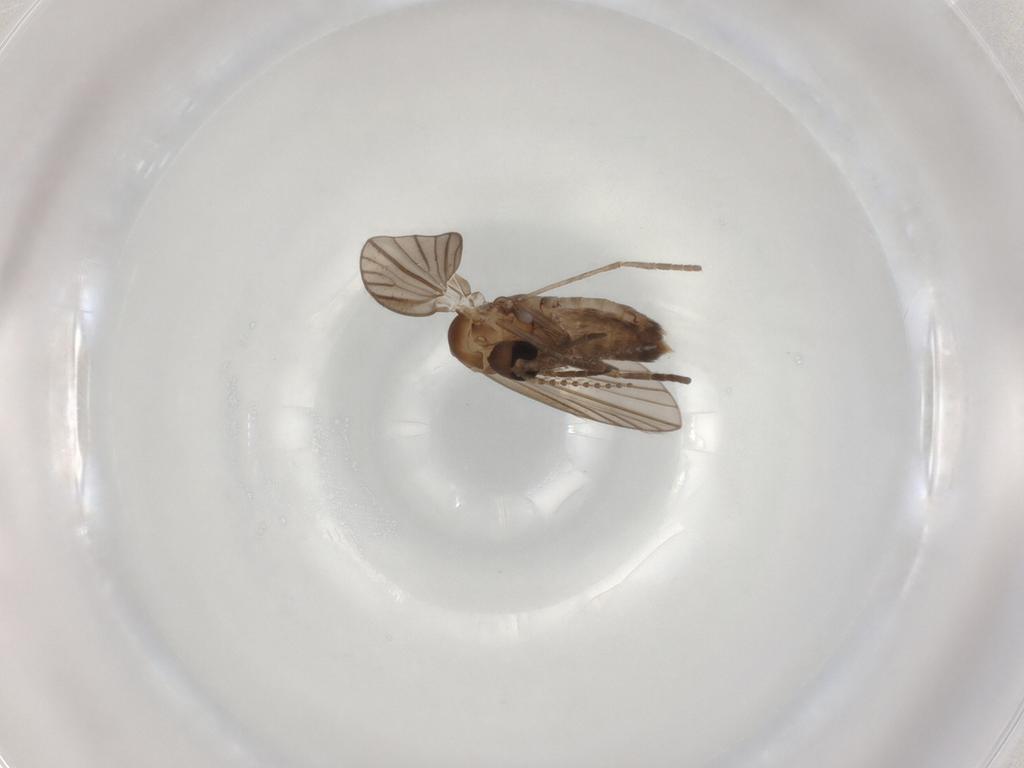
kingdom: Animalia
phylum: Arthropoda
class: Insecta
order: Diptera
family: Psychodidae
